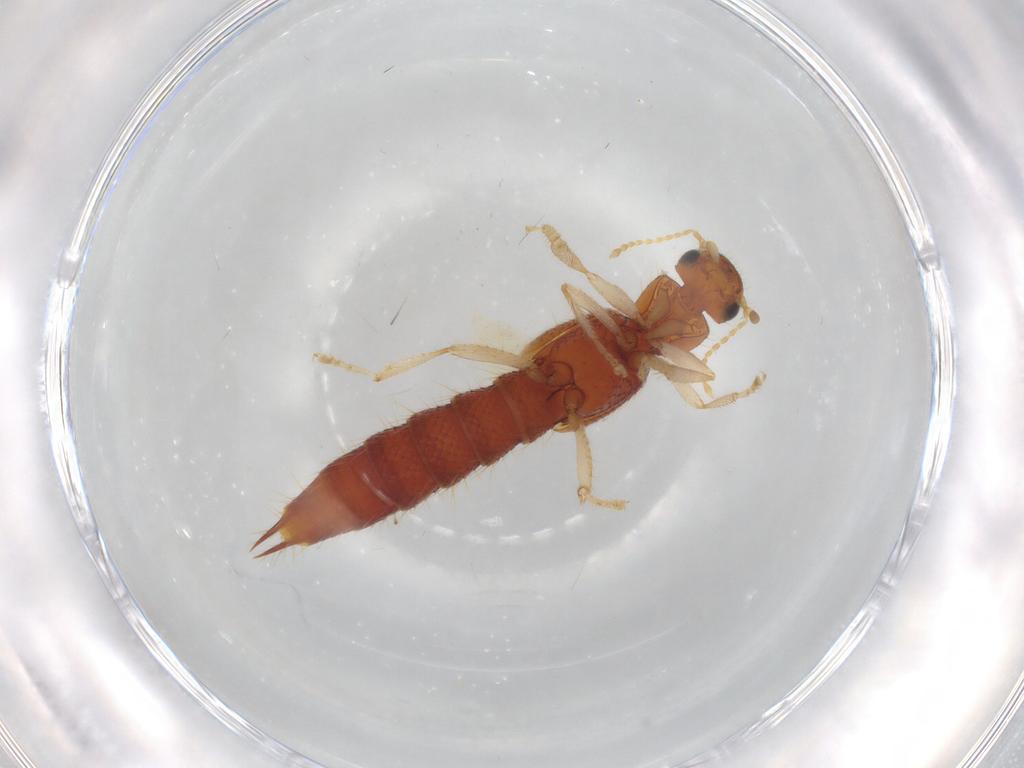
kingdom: Animalia
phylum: Arthropoda
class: Insecta
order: Coleoptera
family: Staphylinidae
